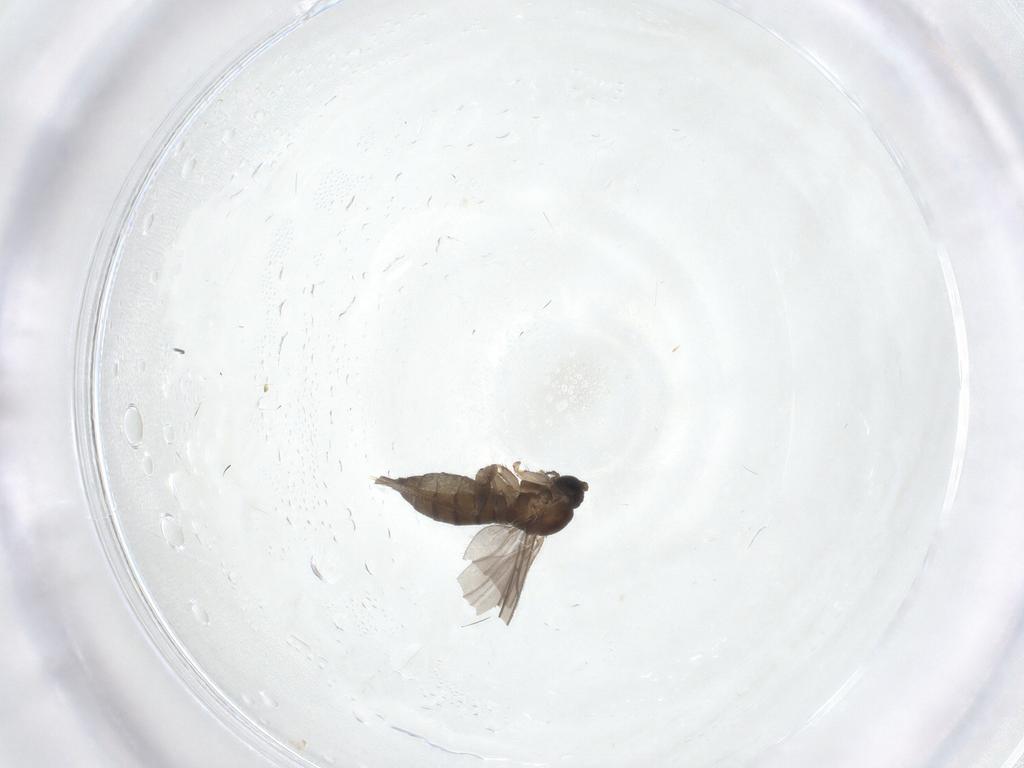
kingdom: Animalia
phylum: Arthropoda
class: Insecta
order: Diptera
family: Sciaridae
